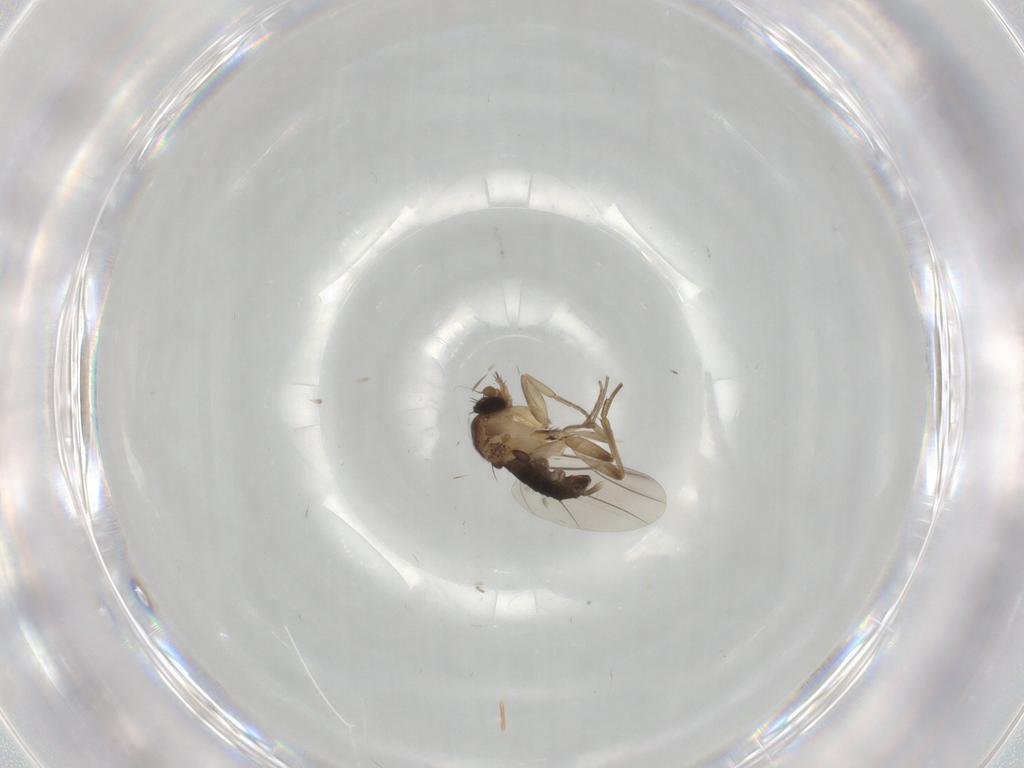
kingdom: Animalia
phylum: Arthropoda
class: Insecta
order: Diptera
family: Phoridae
